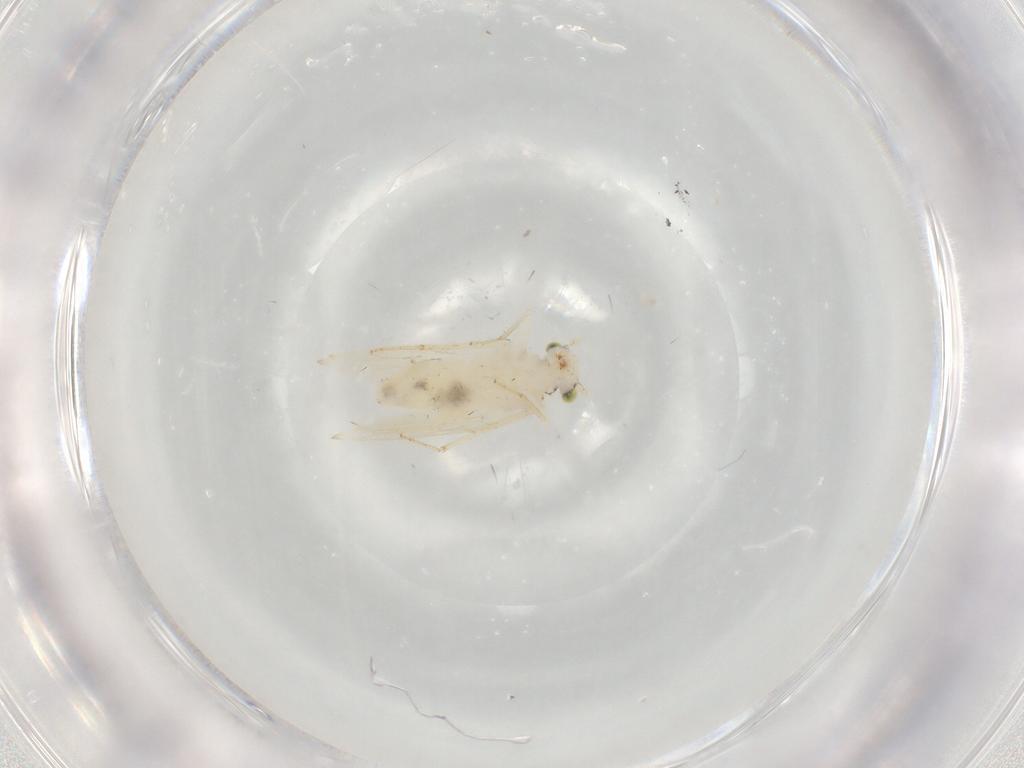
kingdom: Animalia
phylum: Arthropoda
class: Insecta
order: Psocodea
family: Lepidopsocidae
